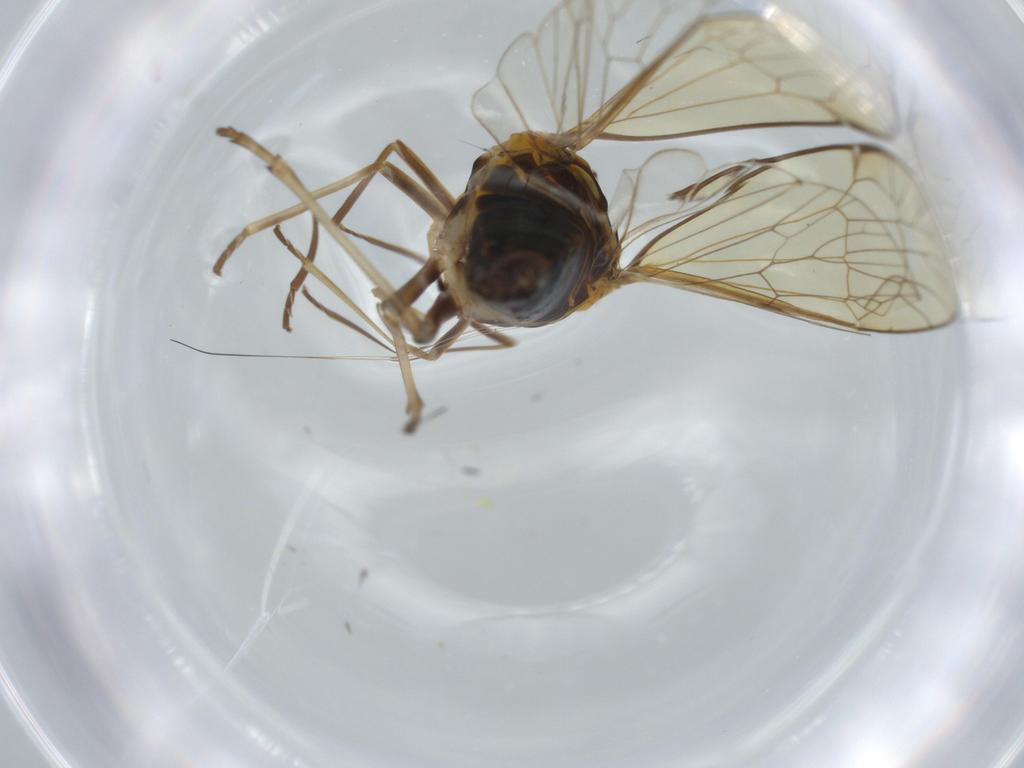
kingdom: Animalia
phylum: Arthropoda
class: Insecta
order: Hemiptera
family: Kinnaridae
